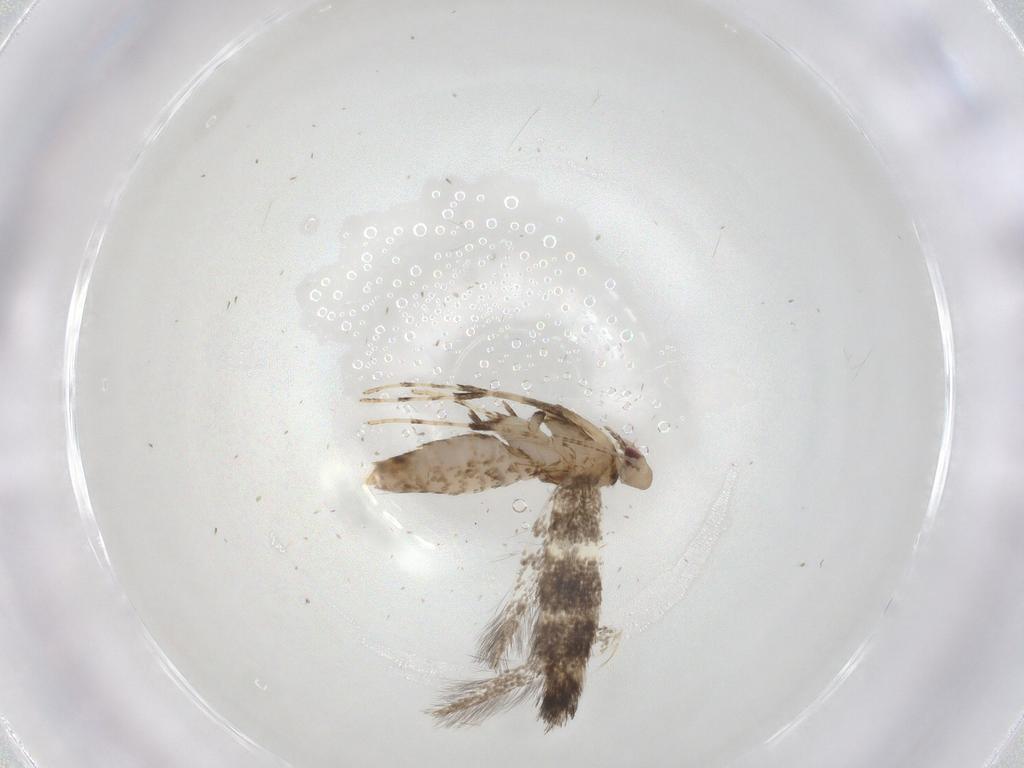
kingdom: Animalia
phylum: Arthropoda
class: Insecta
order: Lepidoptera
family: Gracillariidae
